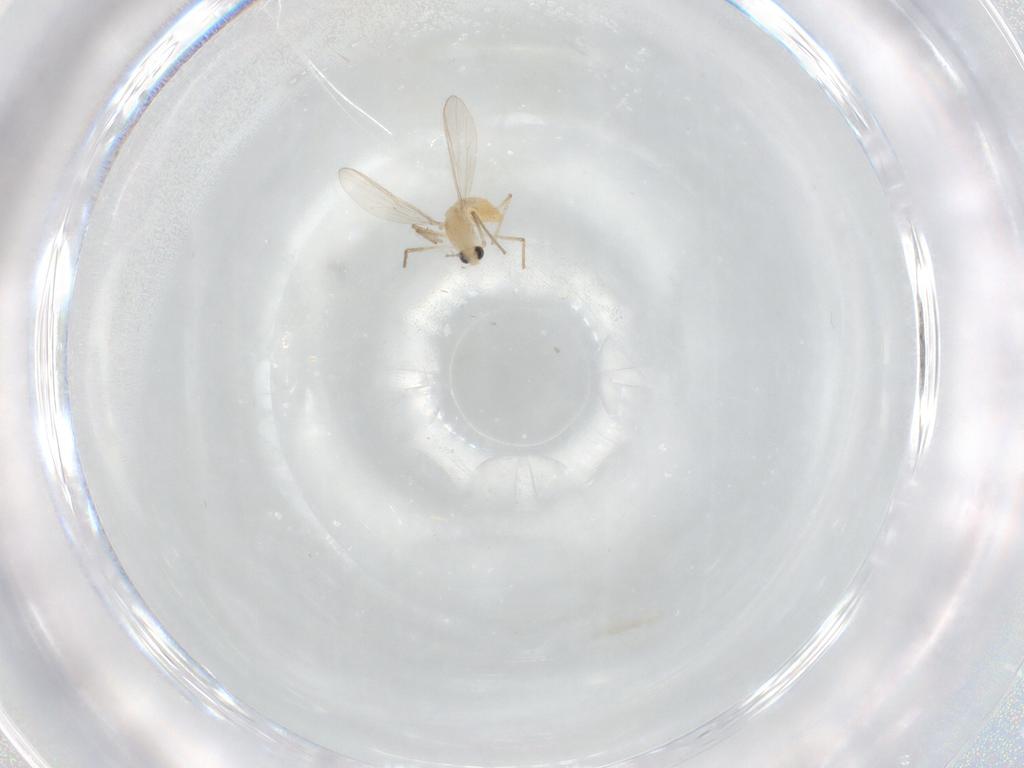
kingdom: Animalia
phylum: Arthropoda
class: Insecta
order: Diptera
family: Chironomidae
